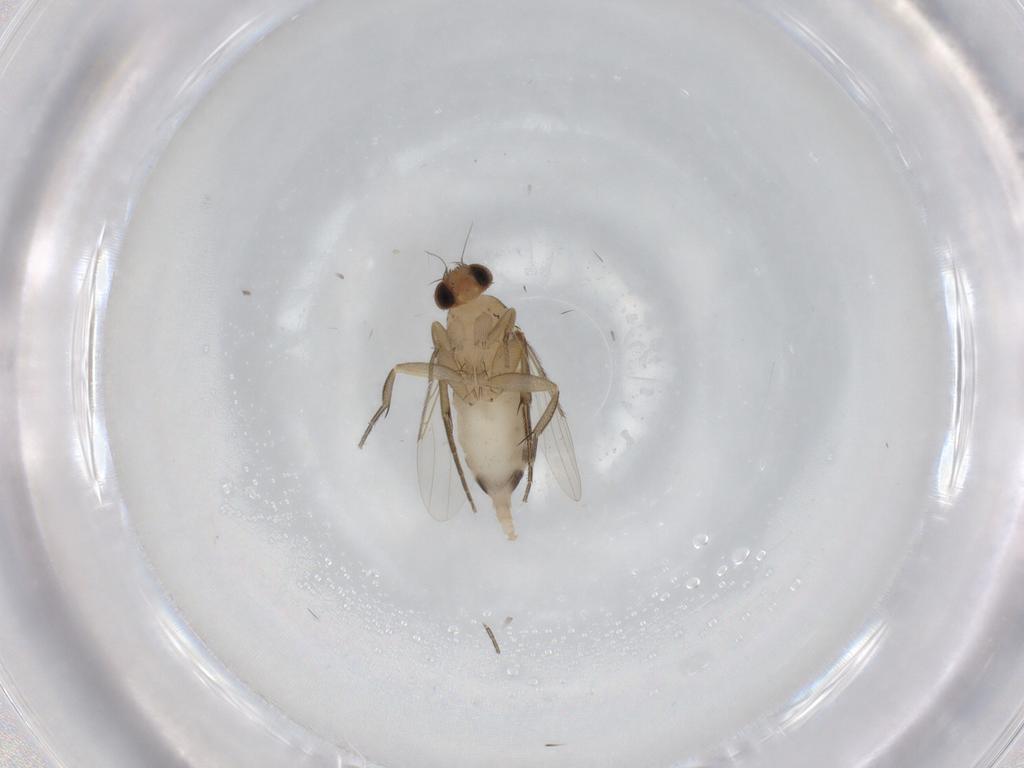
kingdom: Animalia
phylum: Arthropoda
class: Insecta
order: Diptera
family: Phoridae
